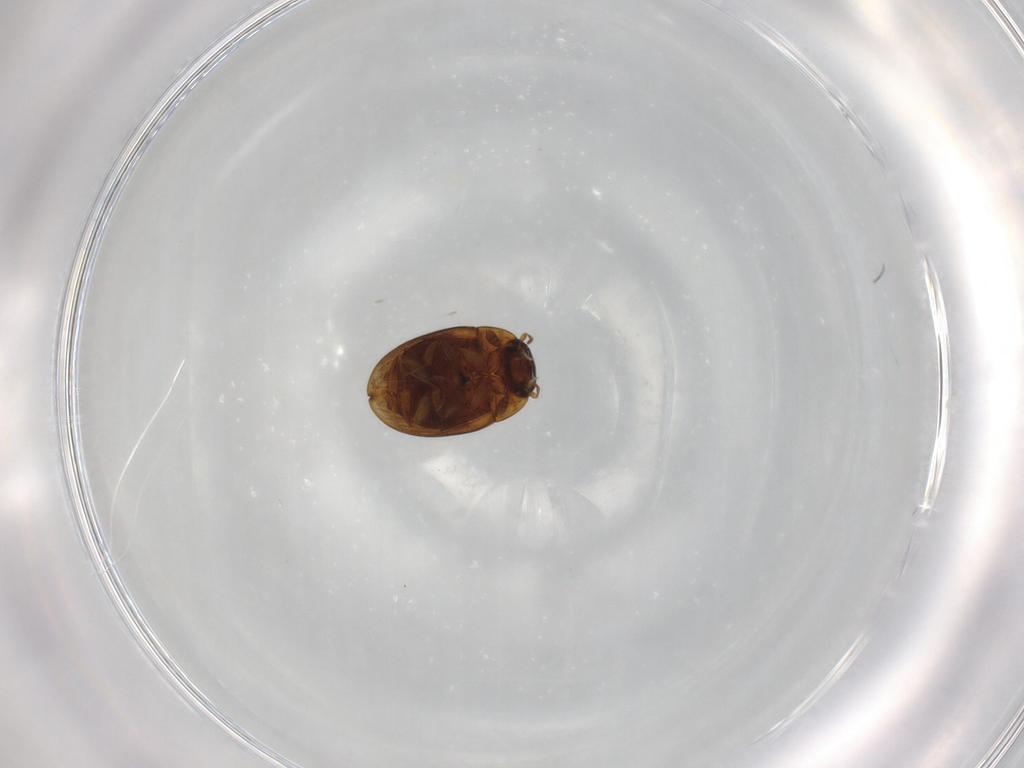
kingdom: Animalia
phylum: Arthropoda
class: Insecta
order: Coleoptera
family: Hydrophilidae
